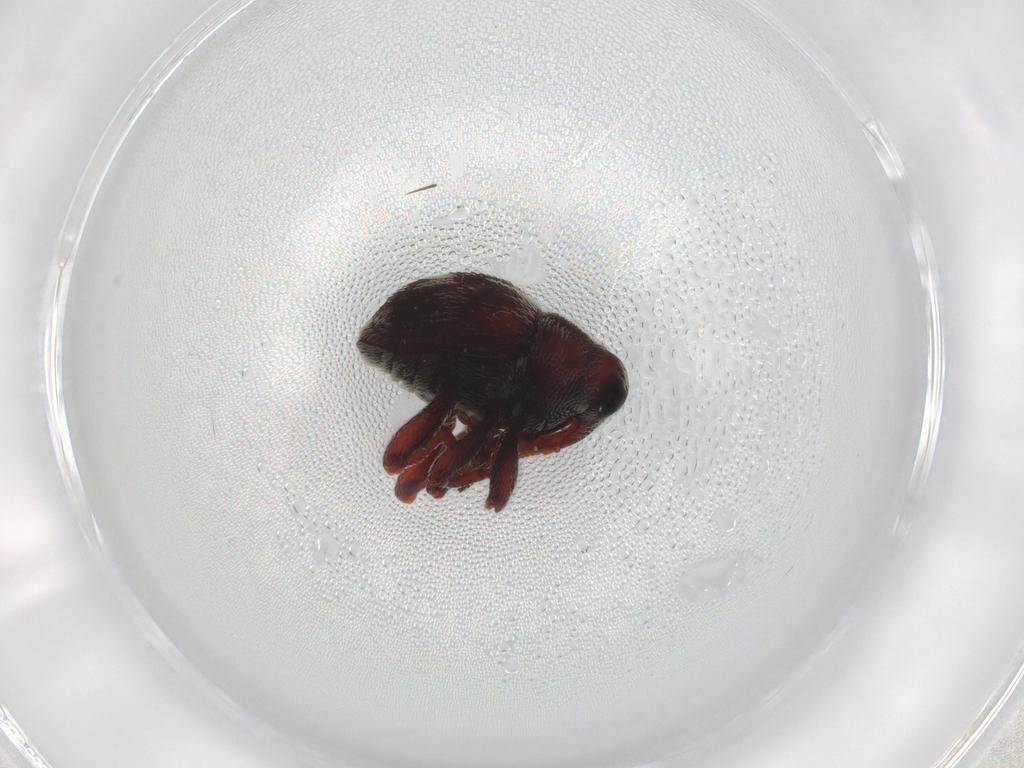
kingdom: Animalia
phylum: Arthropoda
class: Insecta
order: Coleoptera
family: Curculionidae
